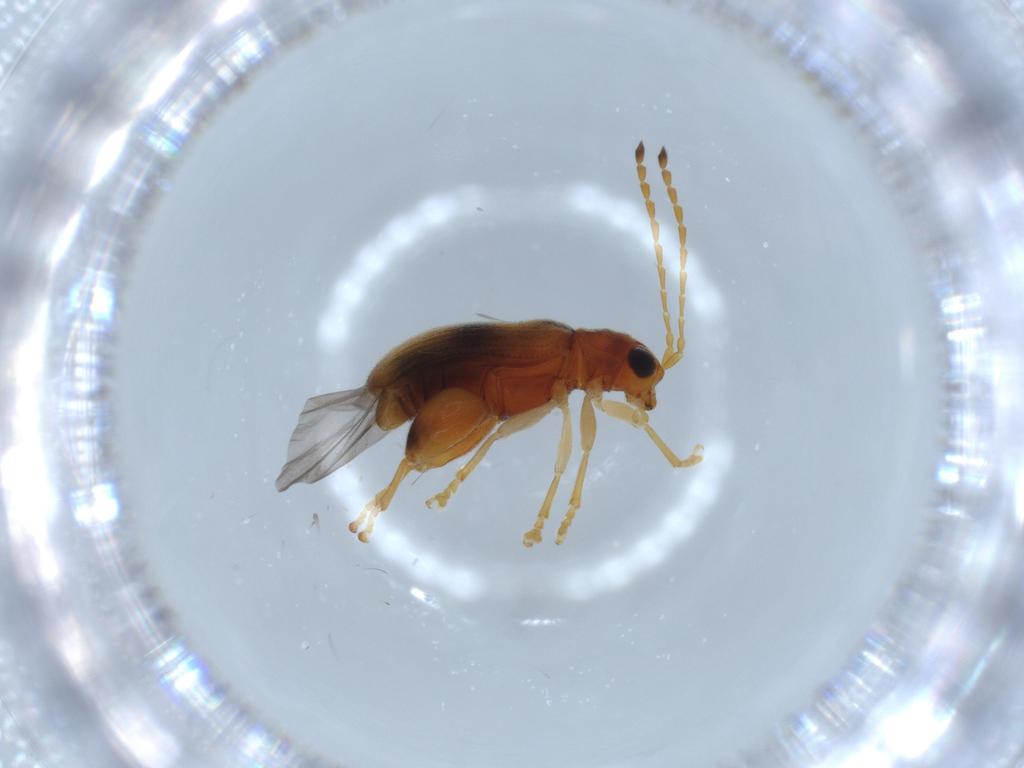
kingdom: Animalia
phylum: Arthropoda
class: Insecta
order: Coleoptera
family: Chrysomelidae
